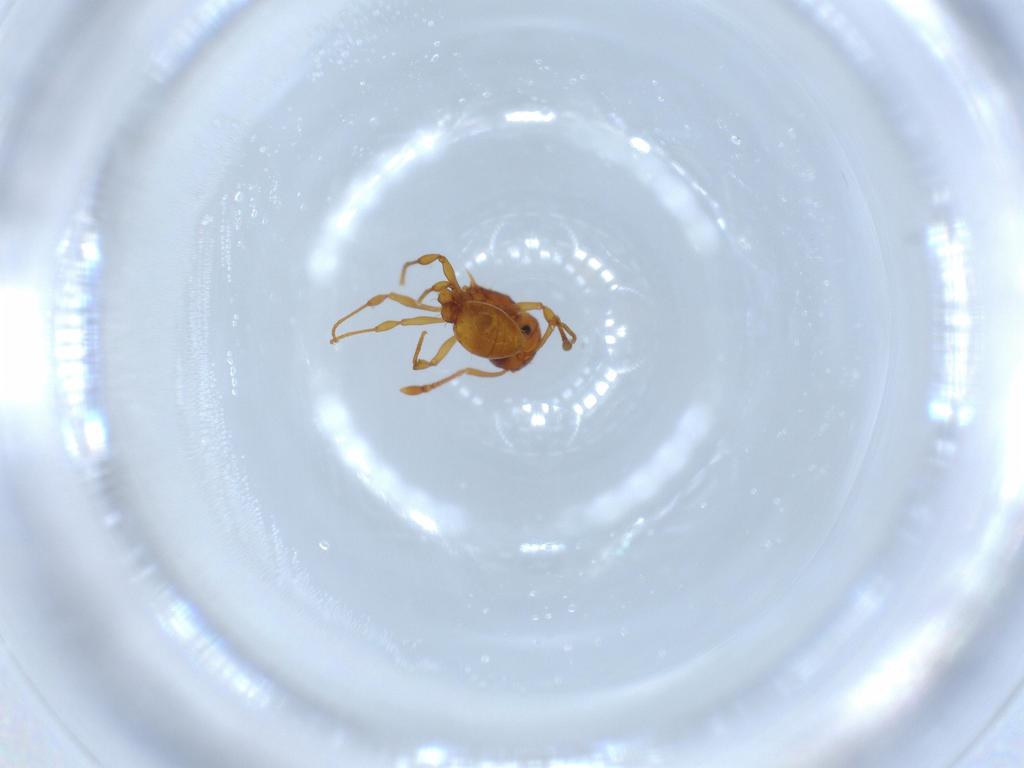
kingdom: Animalia
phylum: Arthropoda
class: Insecta
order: Hymenoptera
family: Formicidae
